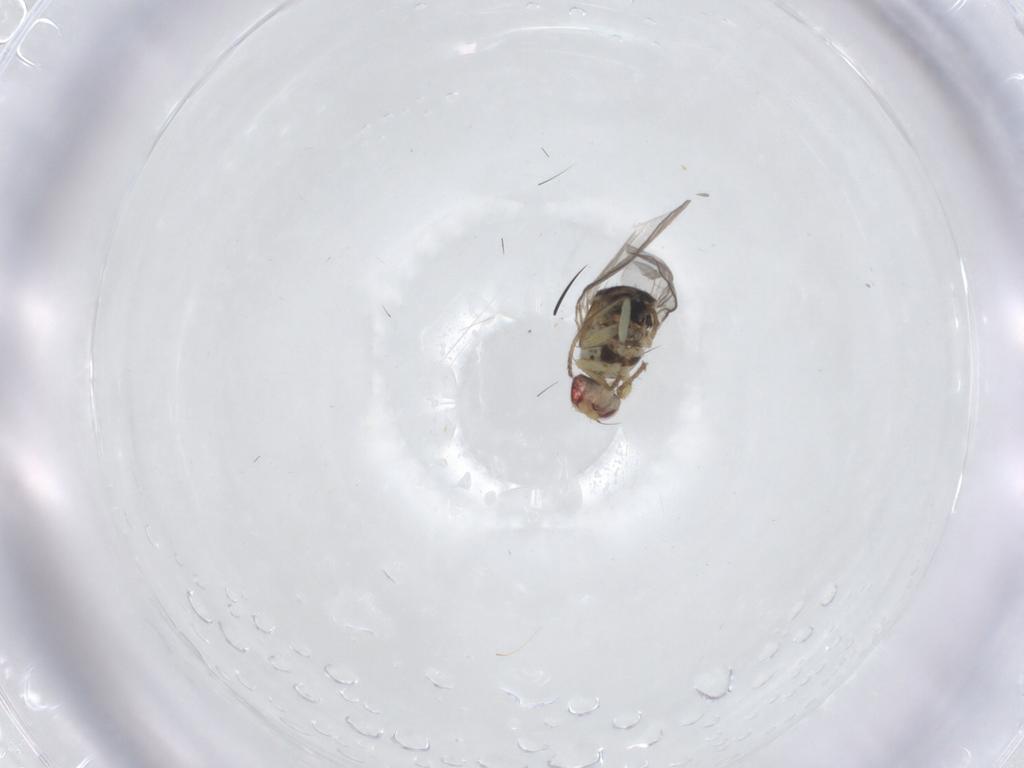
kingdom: Animalia
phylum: Arthropoda
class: Insecta
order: Diptera
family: Agromyzidae
